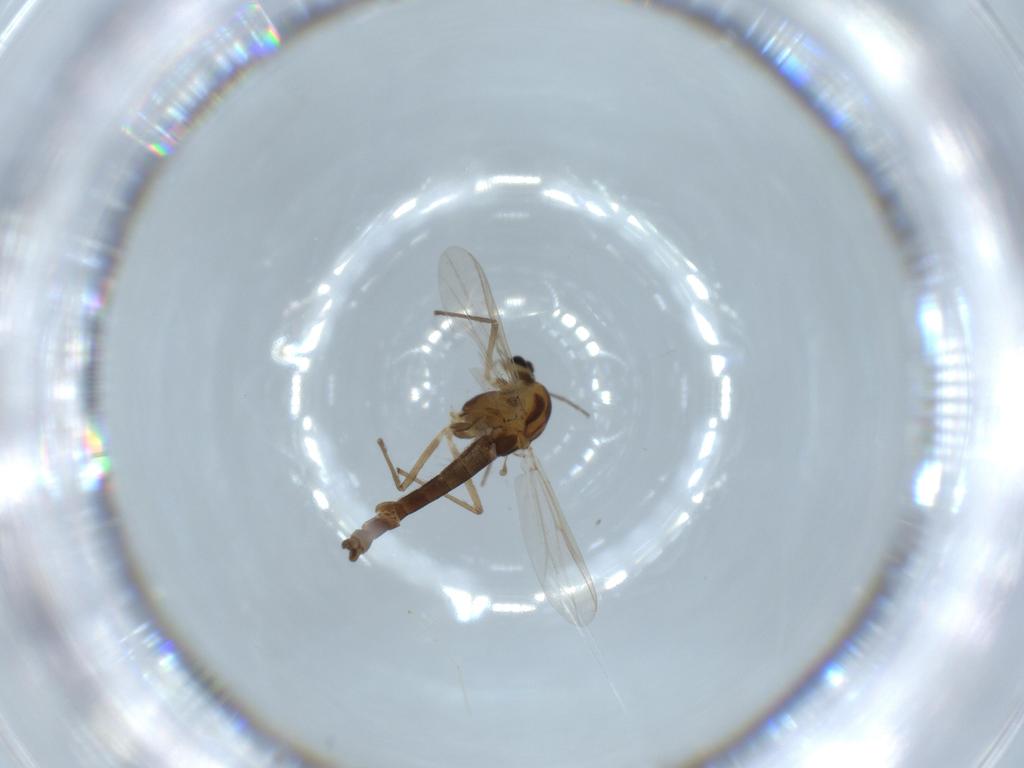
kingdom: Animalia
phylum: Arthropoda
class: Insecta
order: Diptera
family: Chironomidae
